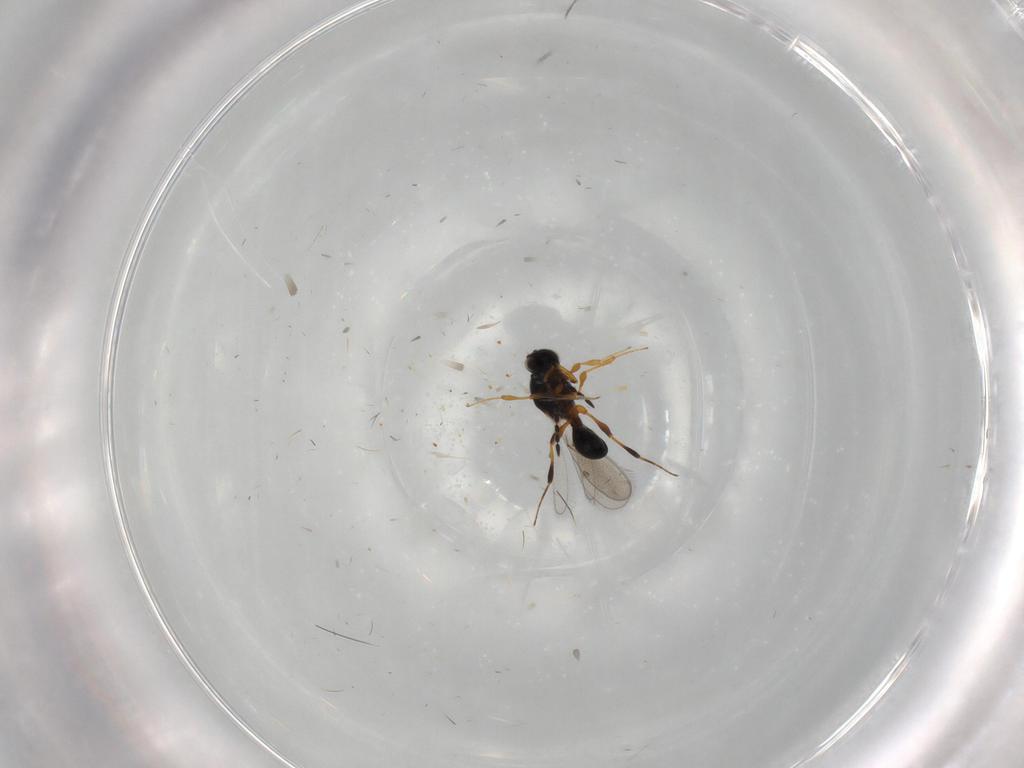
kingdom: Animalia
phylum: Arthropoda
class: Insecta
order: Hymenoptera
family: Platygastridae
